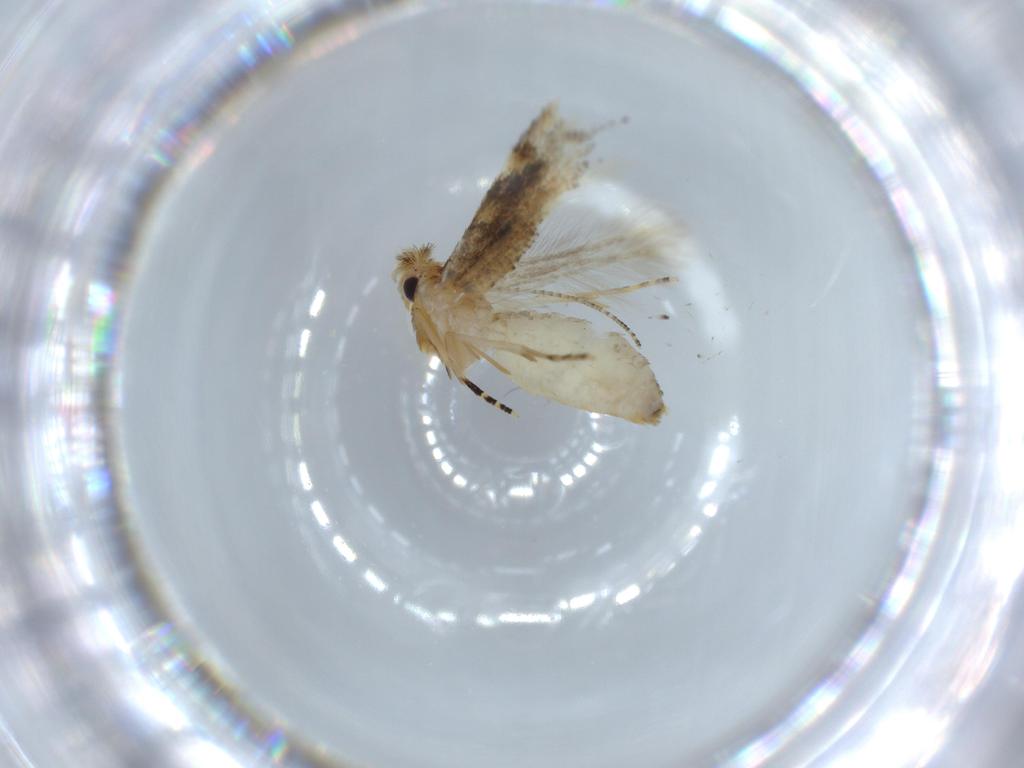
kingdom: Animalia
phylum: Arthropoda
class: Insecta
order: Lepidoptera
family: Bucculatricidae
